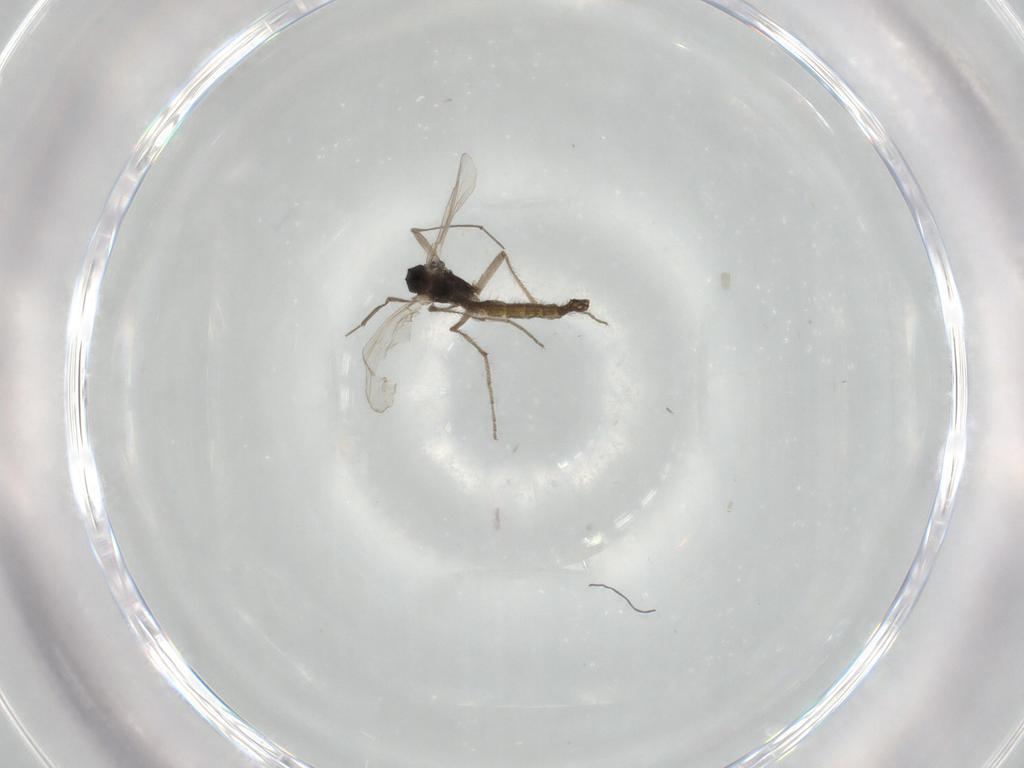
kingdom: Animalia
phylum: Arthropoda
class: Insecta
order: Diptera
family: Chironomidae
